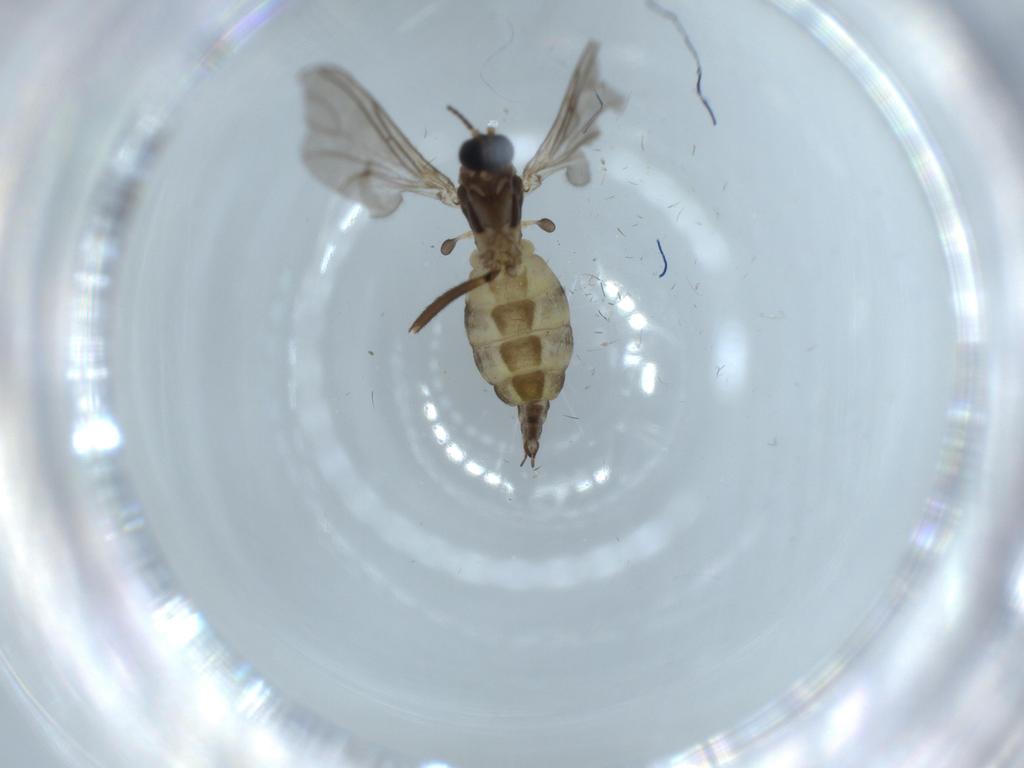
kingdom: Animalia
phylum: Arthropoda
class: Insecta
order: Diptera
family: Sciaridae
